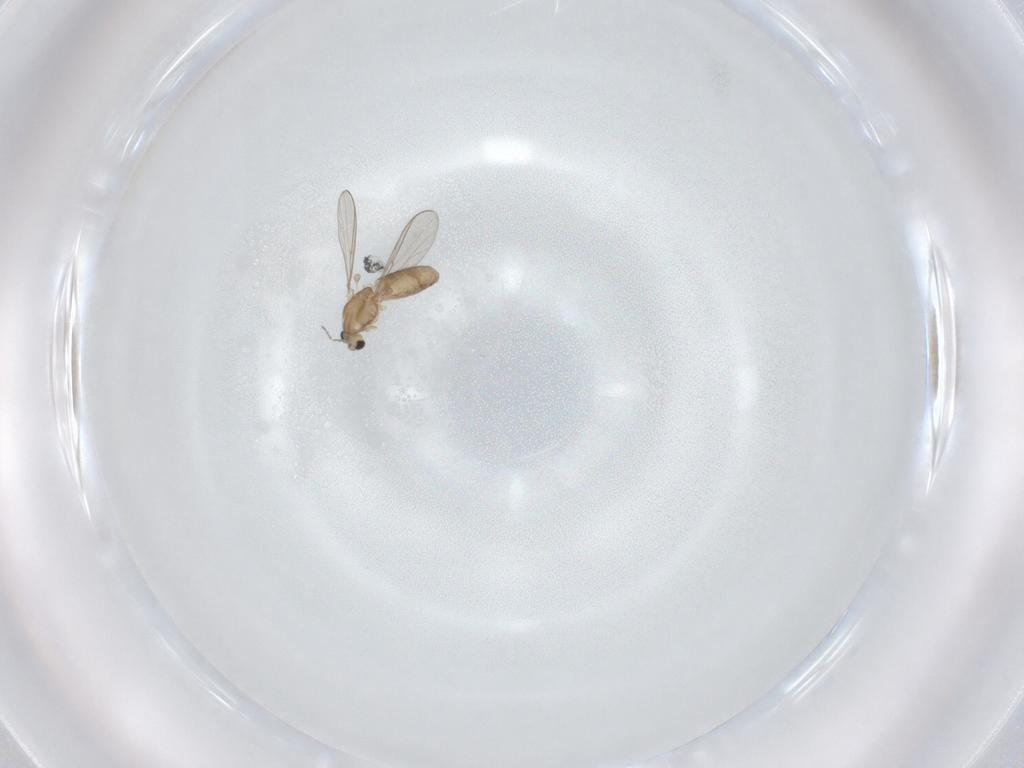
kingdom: Animalia
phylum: Arthropoda
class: Insecta
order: Diptera
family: Chironomidae
